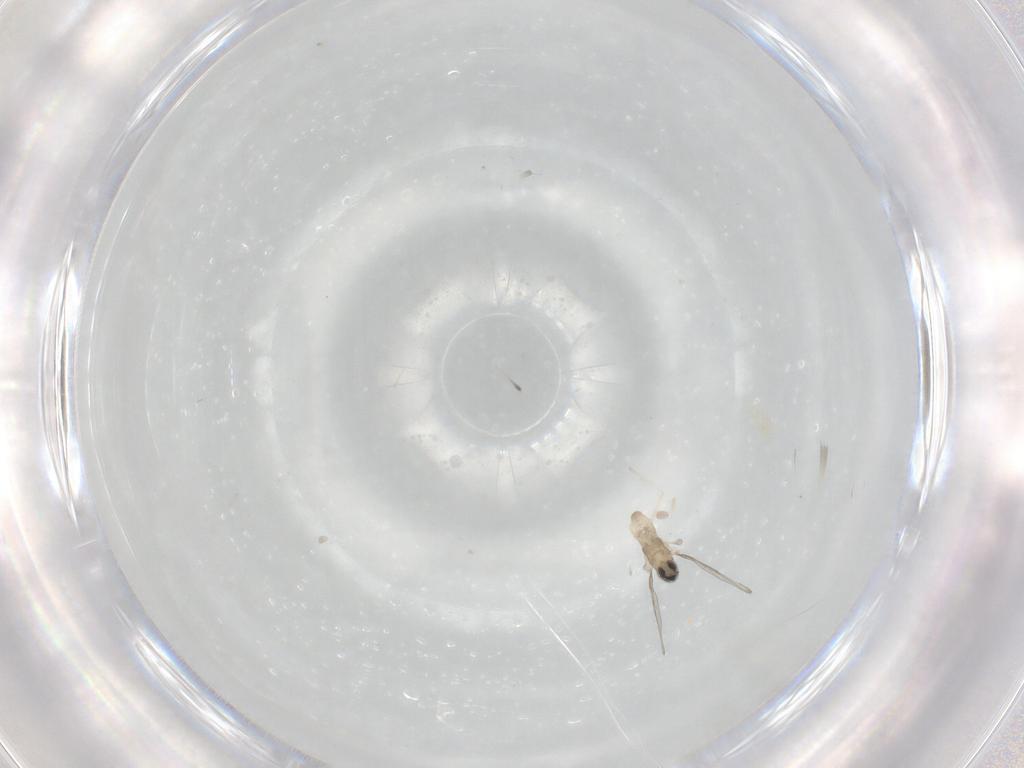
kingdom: Animalia
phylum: Arthropoda
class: Insecta
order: Diptera
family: Cecidomyiidae
